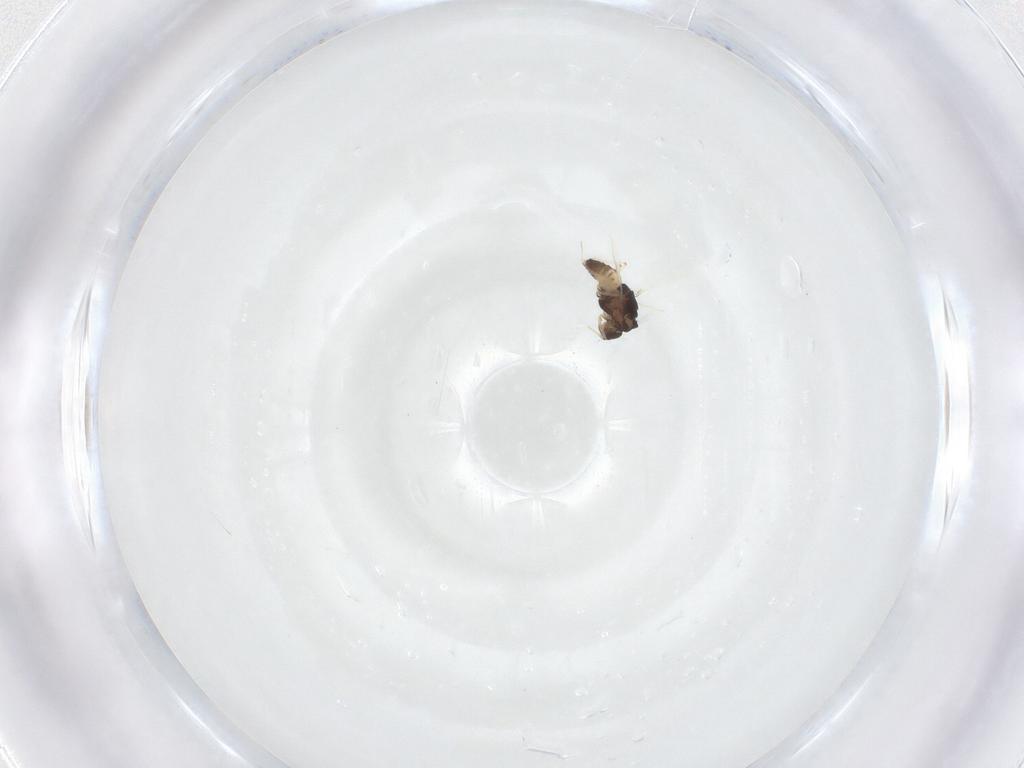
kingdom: Animalia
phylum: Arthropoda
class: Insecta
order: Diptera
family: Chironomidae
